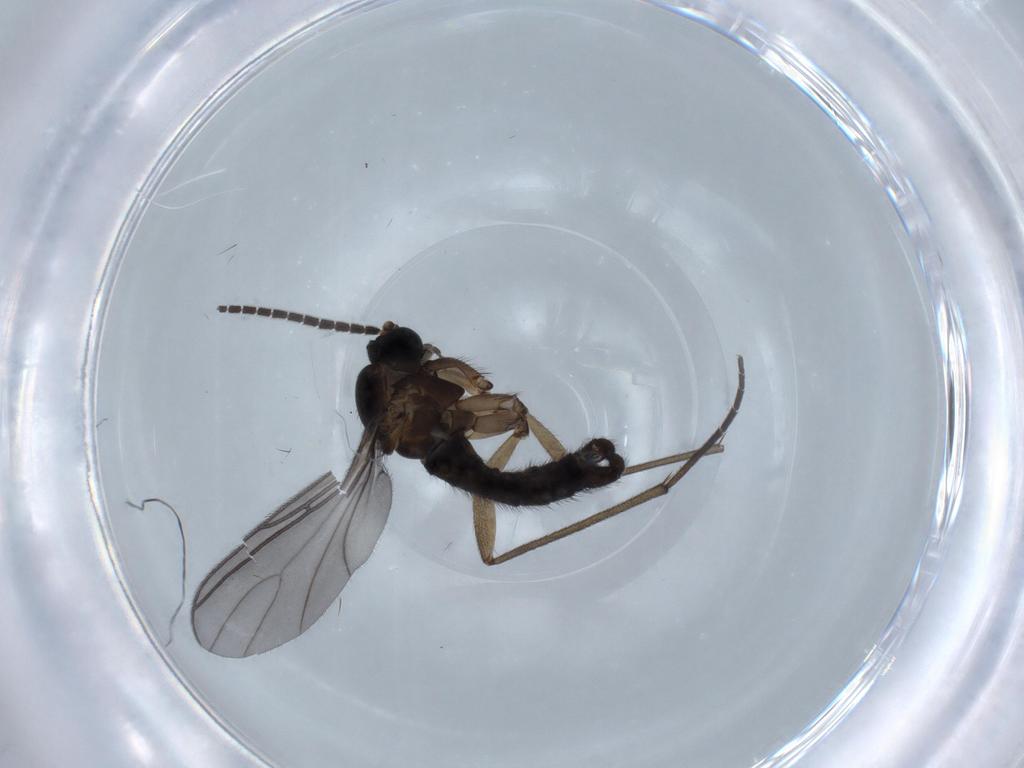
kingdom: Animalia
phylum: Arthropoda
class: Insecta
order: Diptera
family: Sciaridae
